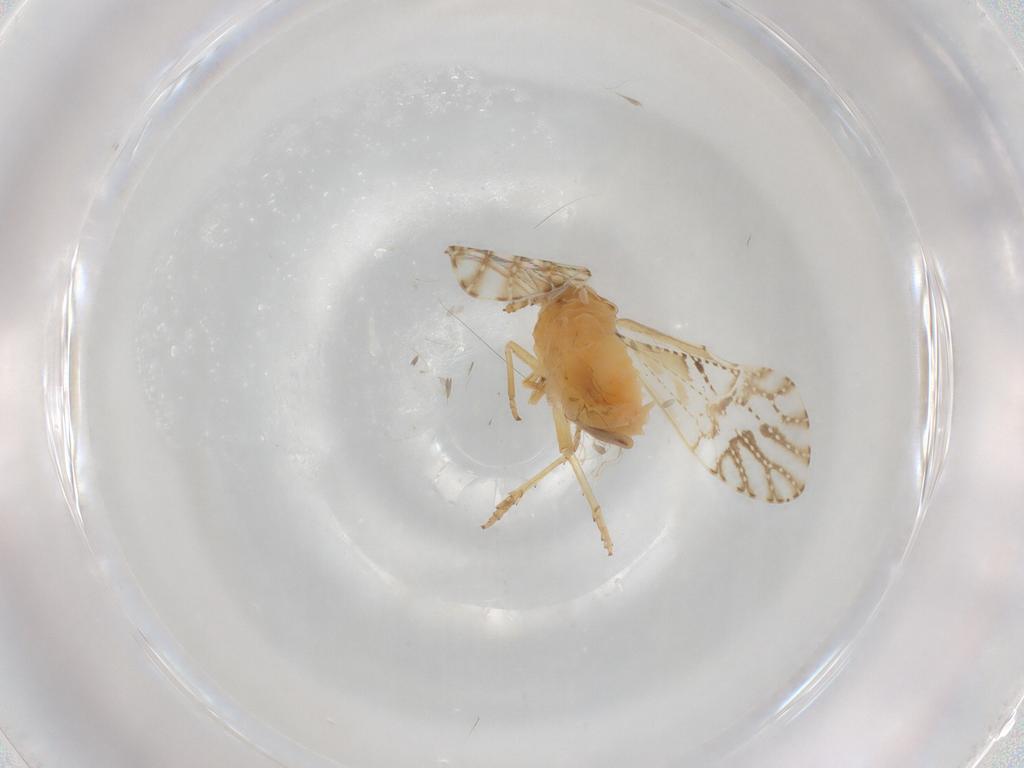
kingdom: Animalia
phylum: Arthropoda
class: Insecta
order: Hemiptera
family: Delphacidae
